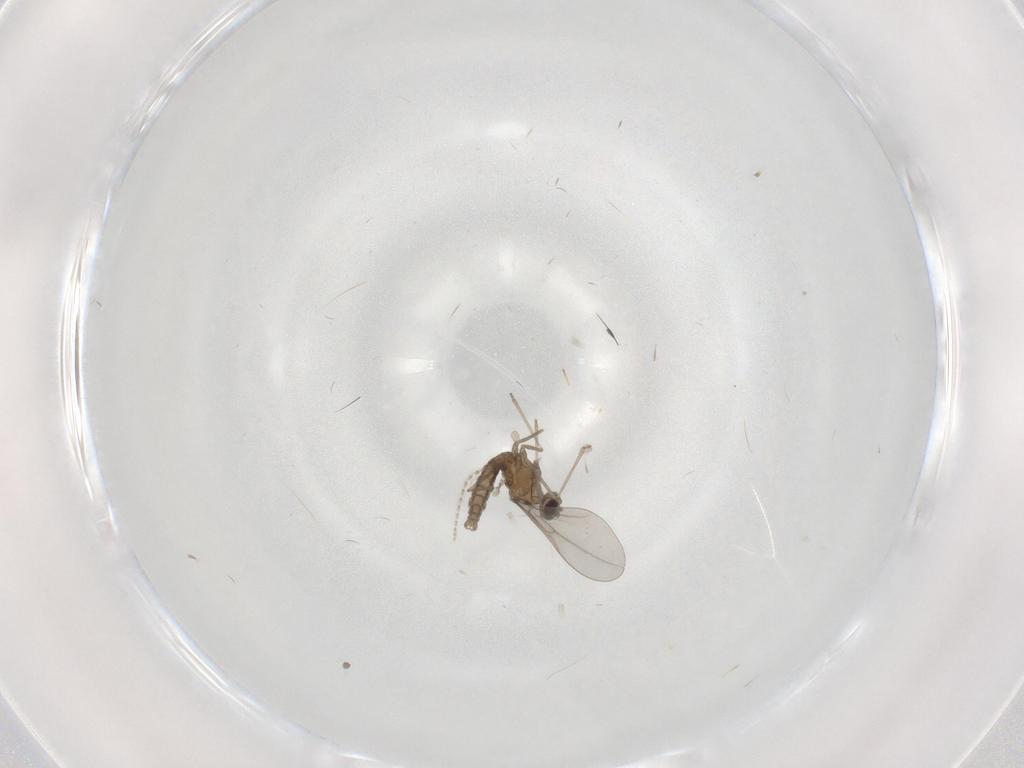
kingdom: Animalia
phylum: Arthropoda
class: Insecta
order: Diptera
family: Cecidomyiidae
